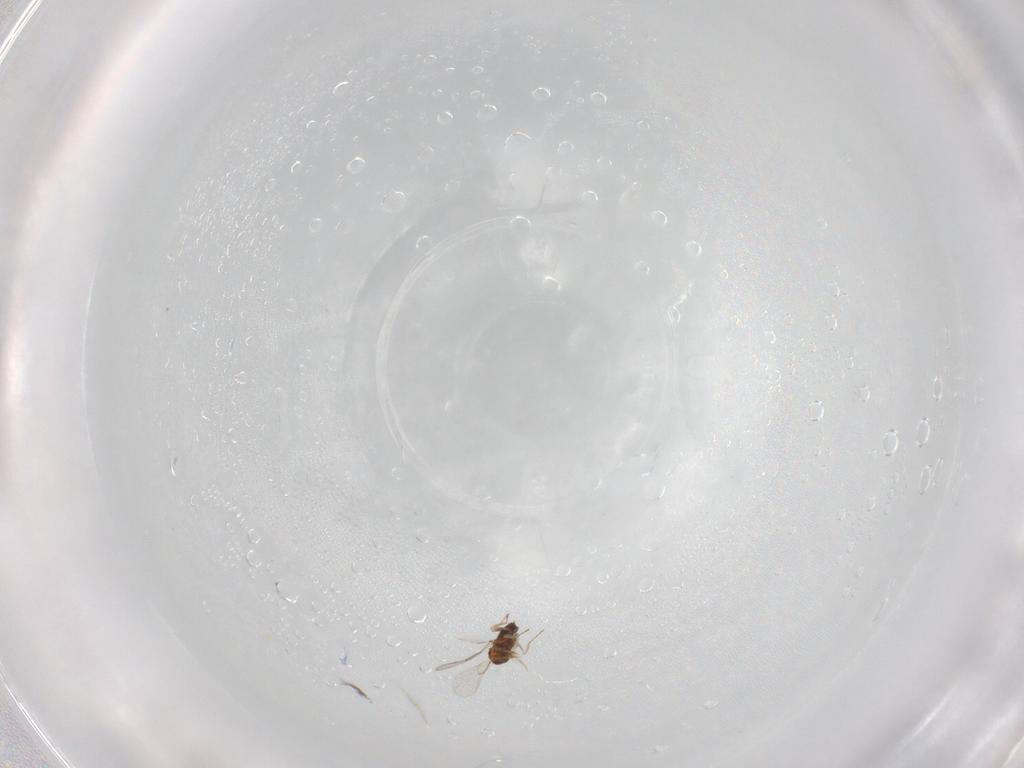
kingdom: Animalia
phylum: Arthropoda
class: Insecta
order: Hymenoptera
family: Trichogrammatidae
